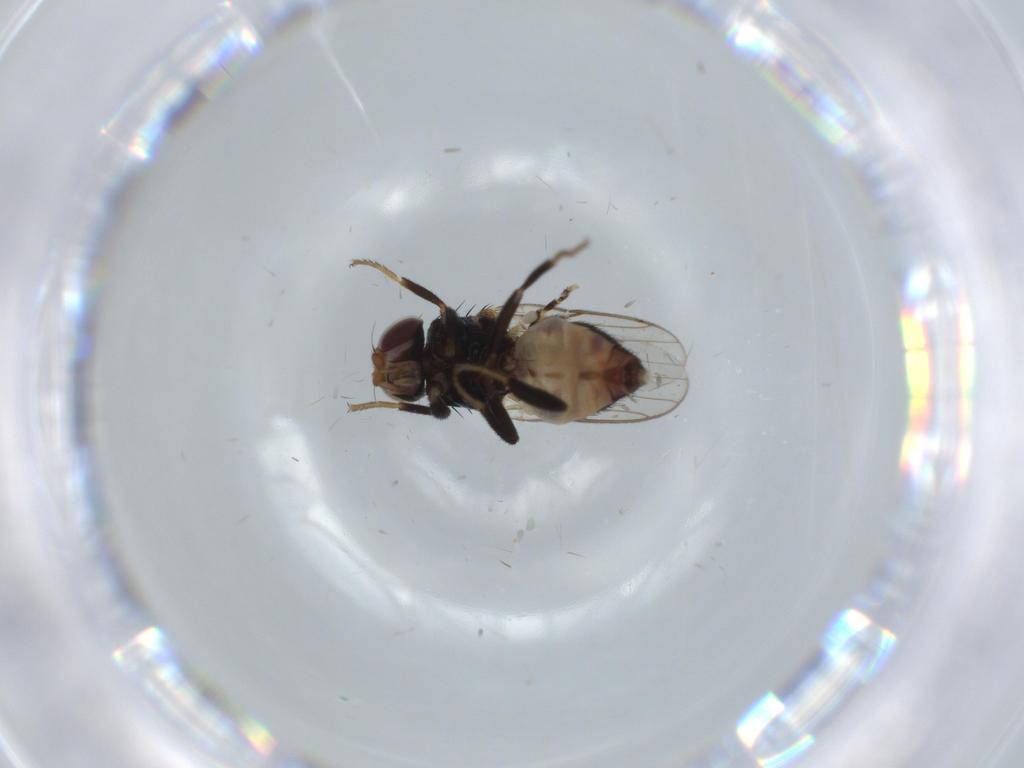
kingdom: Animalia
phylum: Arthropoda
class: Insecta
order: Diptera
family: Chloropidae
